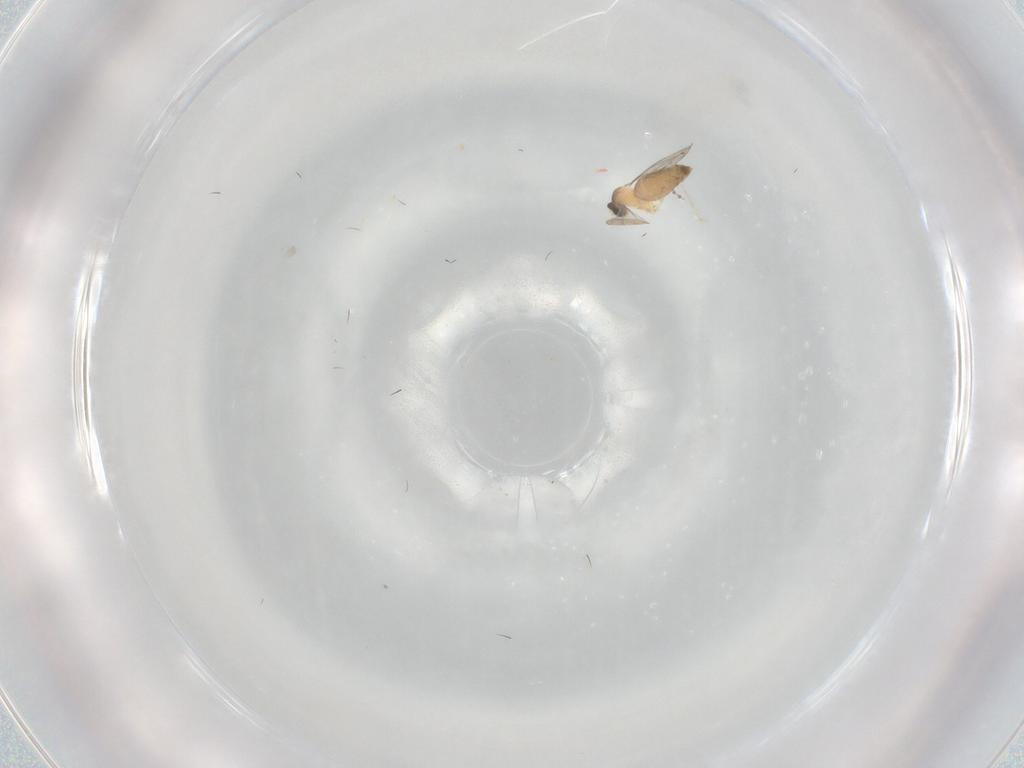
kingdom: Animalia
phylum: Arthropoda
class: Insecta
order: Diptera
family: Cecidomyiidae
